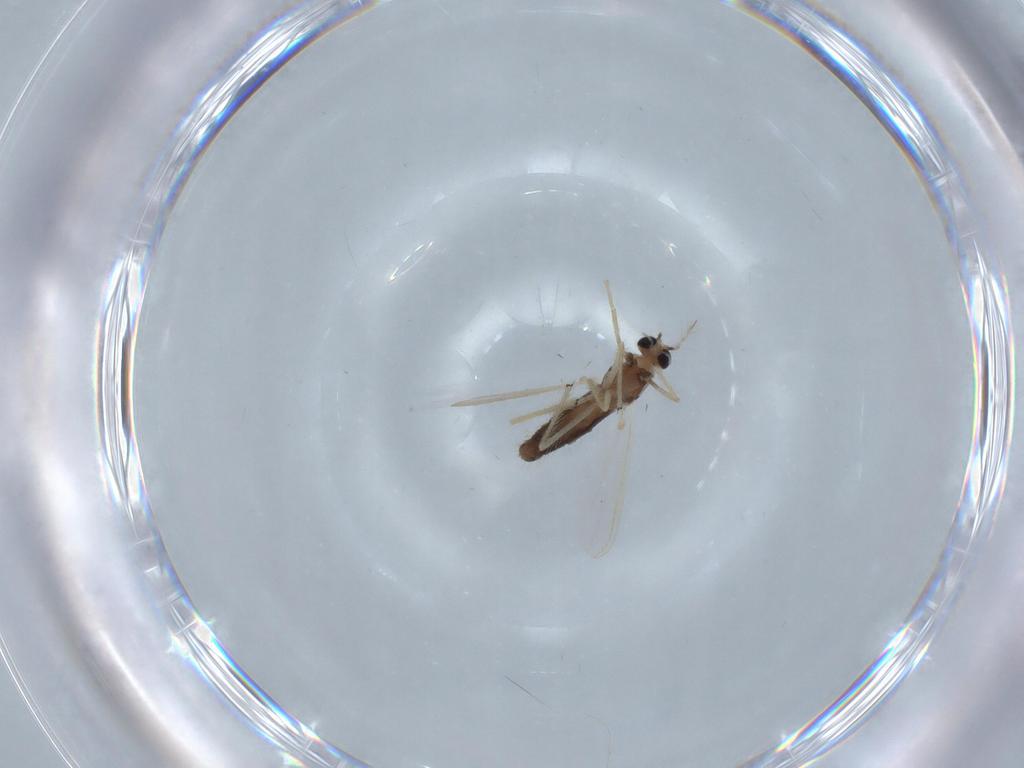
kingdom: Animalia
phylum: Arthropoda
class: Insecta
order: Diptera
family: Chironomidae
